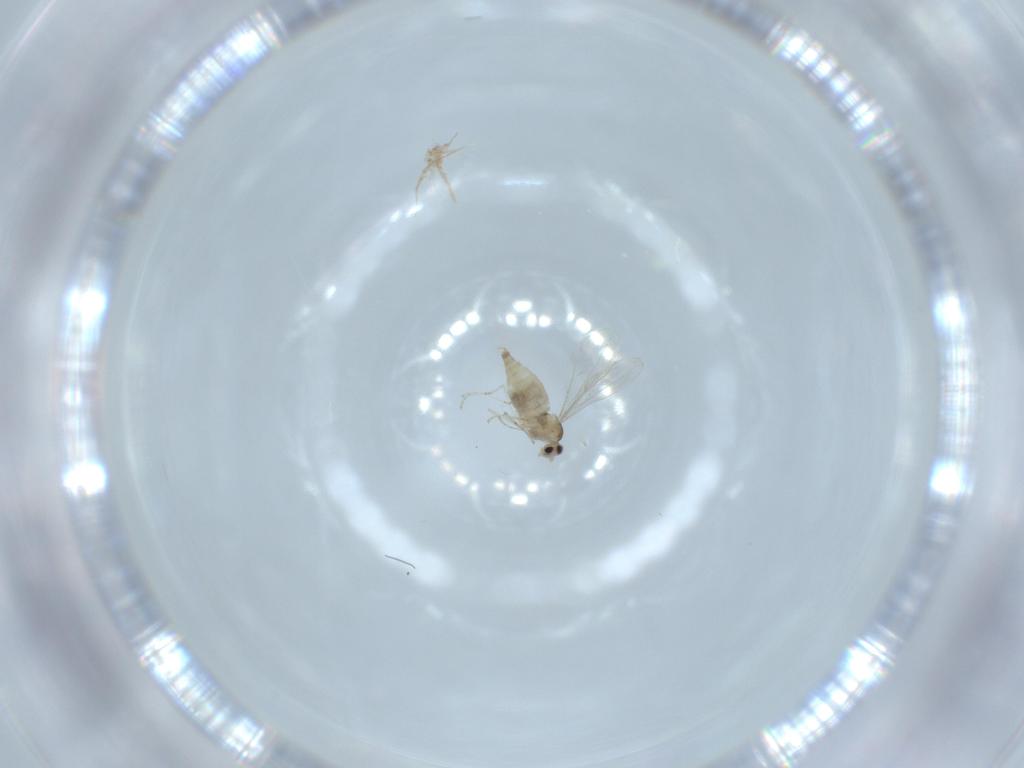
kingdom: Animalia
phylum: Arthropoda
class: Insecta
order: Diptera
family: Cecidomyiidae
